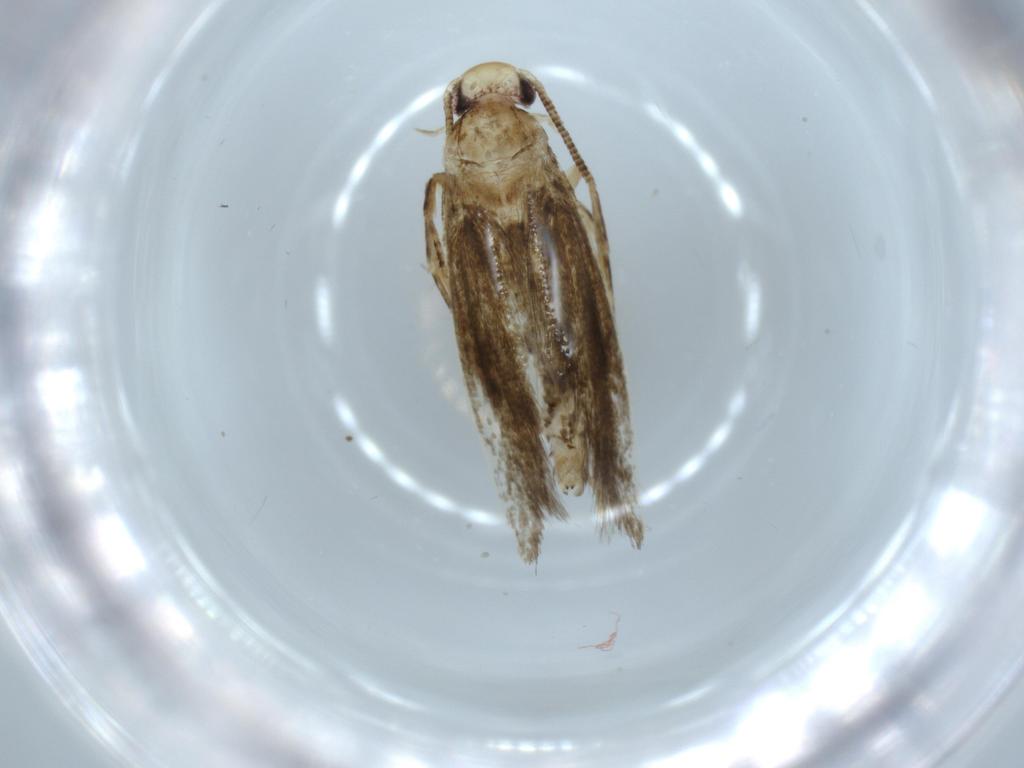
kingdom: Animalia
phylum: Arthropoda
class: Insecta
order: Lepidoptera
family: Tineidae
